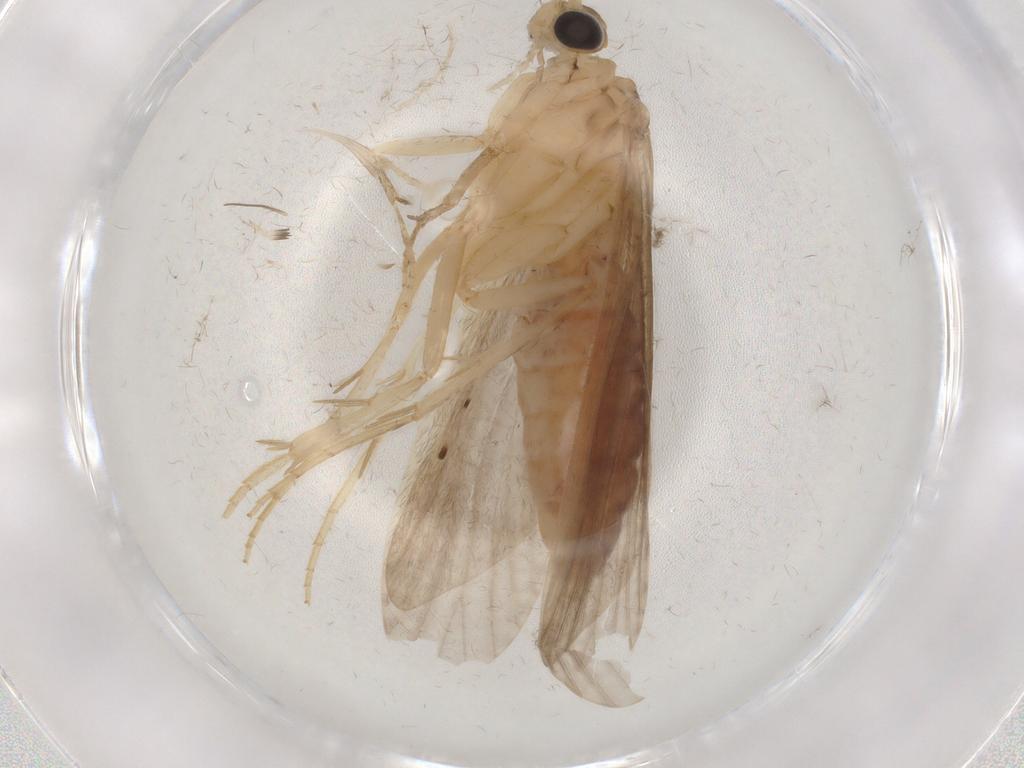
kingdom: Animalia
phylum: Arthropoda
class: Insecta
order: Trichoptera
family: Ecnomidae
